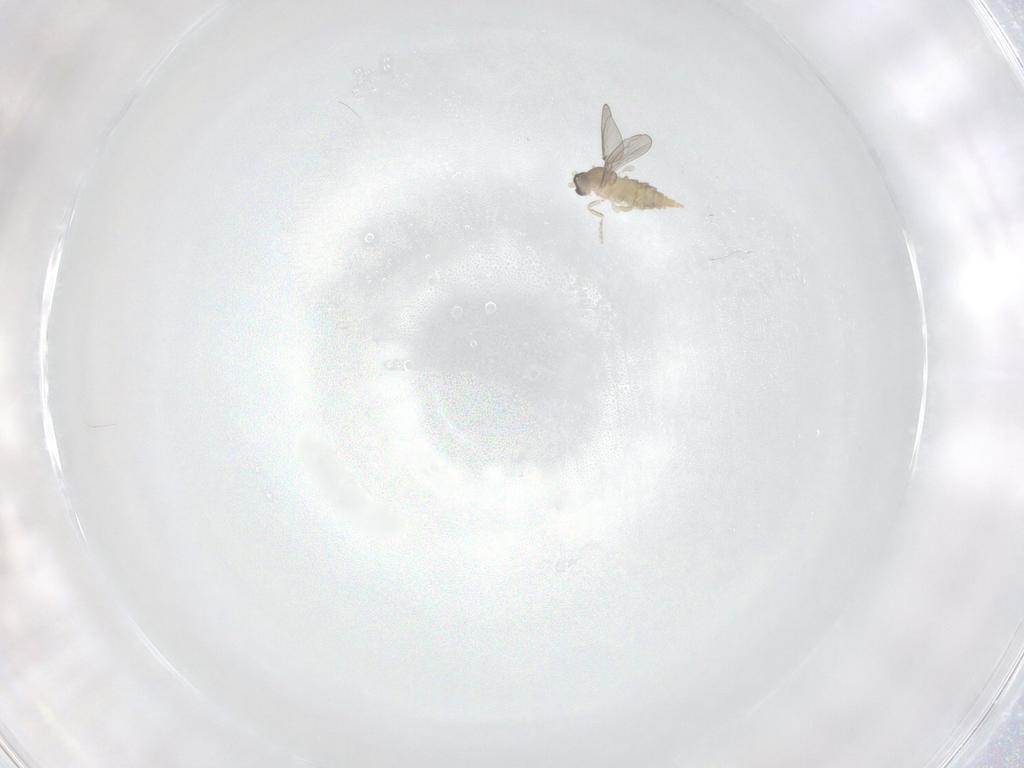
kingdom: Animalia
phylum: Arthropoda
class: Insecta
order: Diptera
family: Cecidomyiidae
